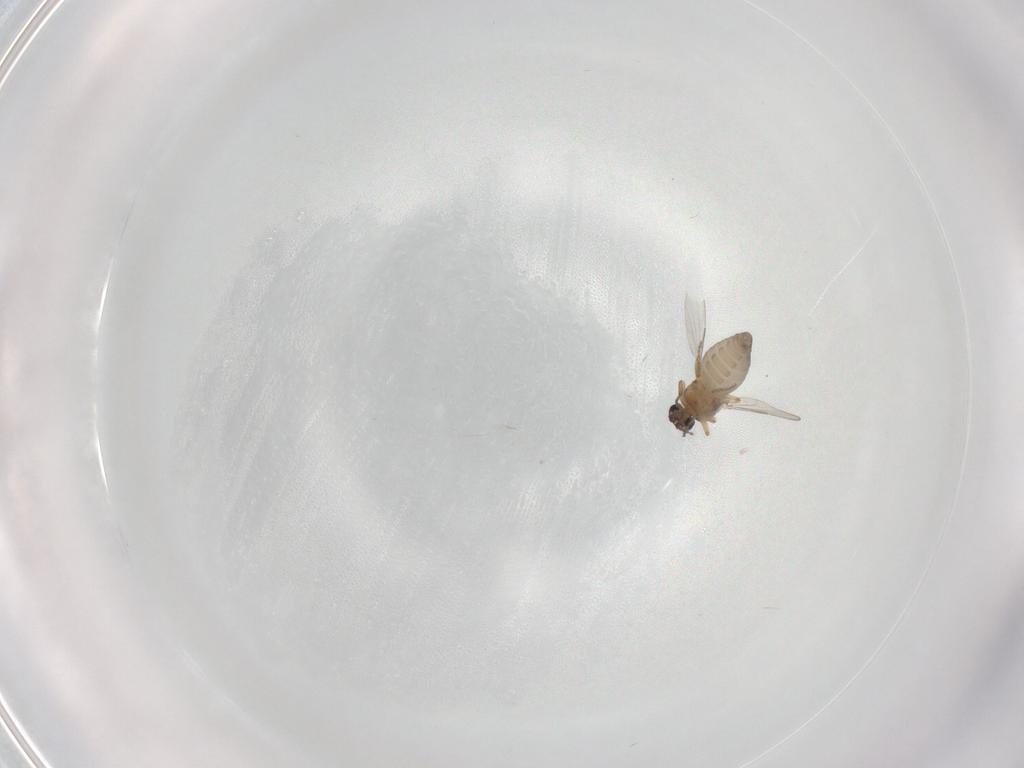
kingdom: Animalia
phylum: Arthropoda
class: Insecta
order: Diptera
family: Ceratopogonidae
